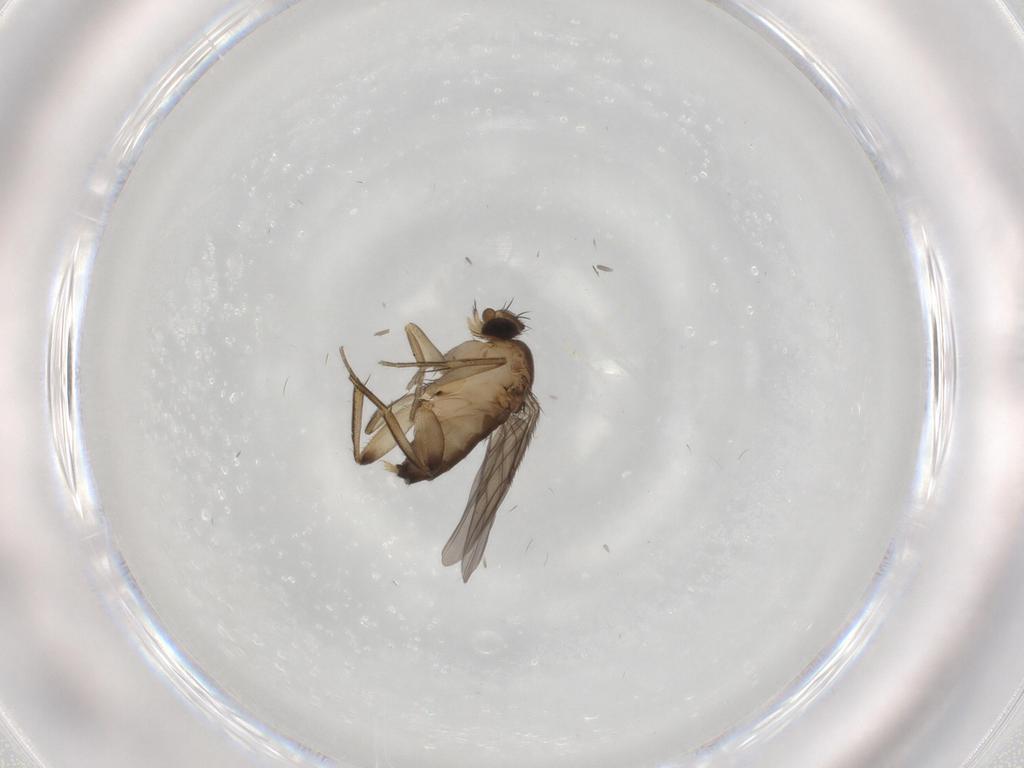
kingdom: Animalia
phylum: Arthropoda
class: Insecta
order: Diptera
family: Phoridae
